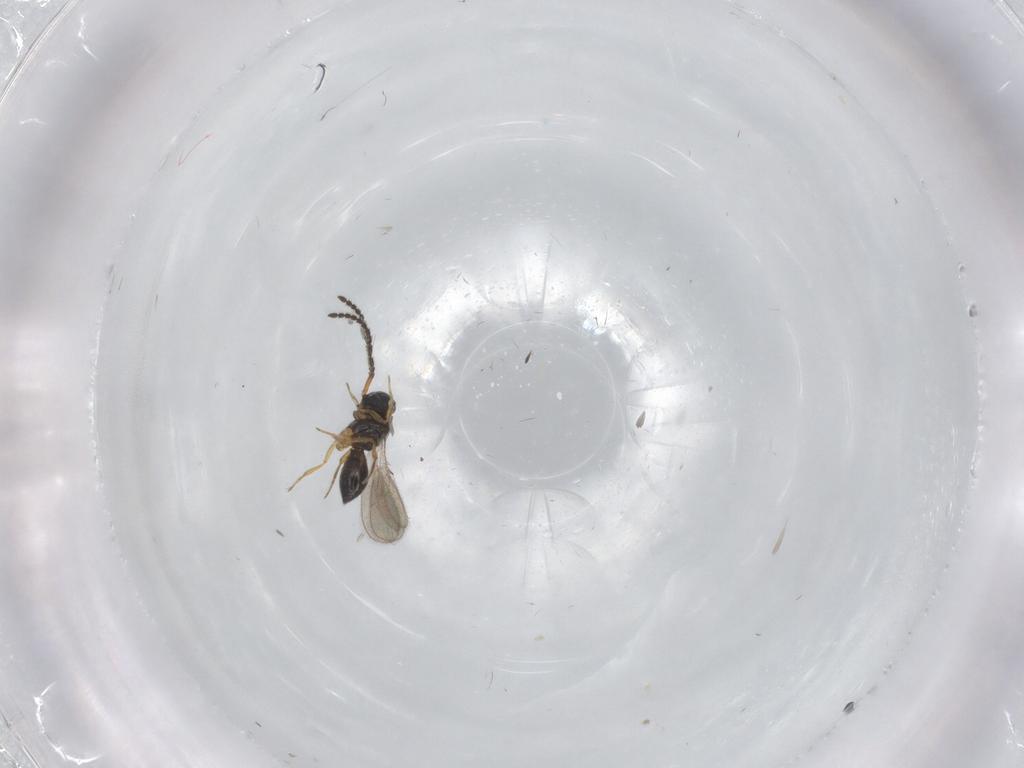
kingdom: Animalia
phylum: Arthropoda
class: Insecta
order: Hymenoptera
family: Scelionidae
